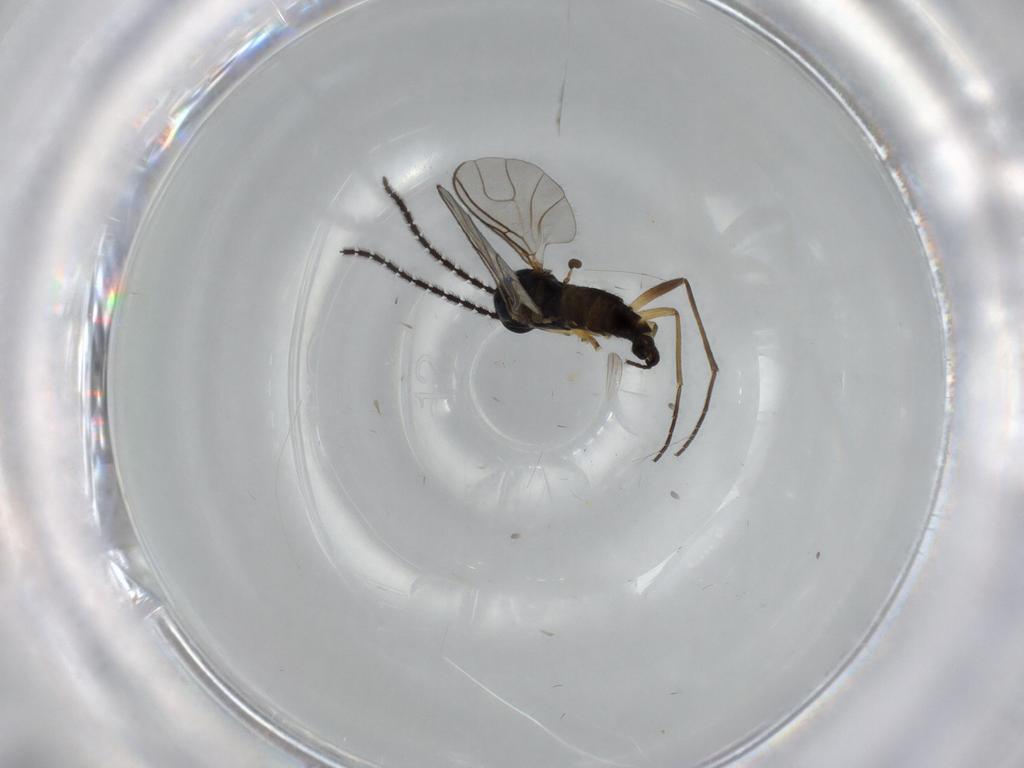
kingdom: Animalia
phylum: Arthropoda
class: Insecta
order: Diptera
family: Sciaridae
